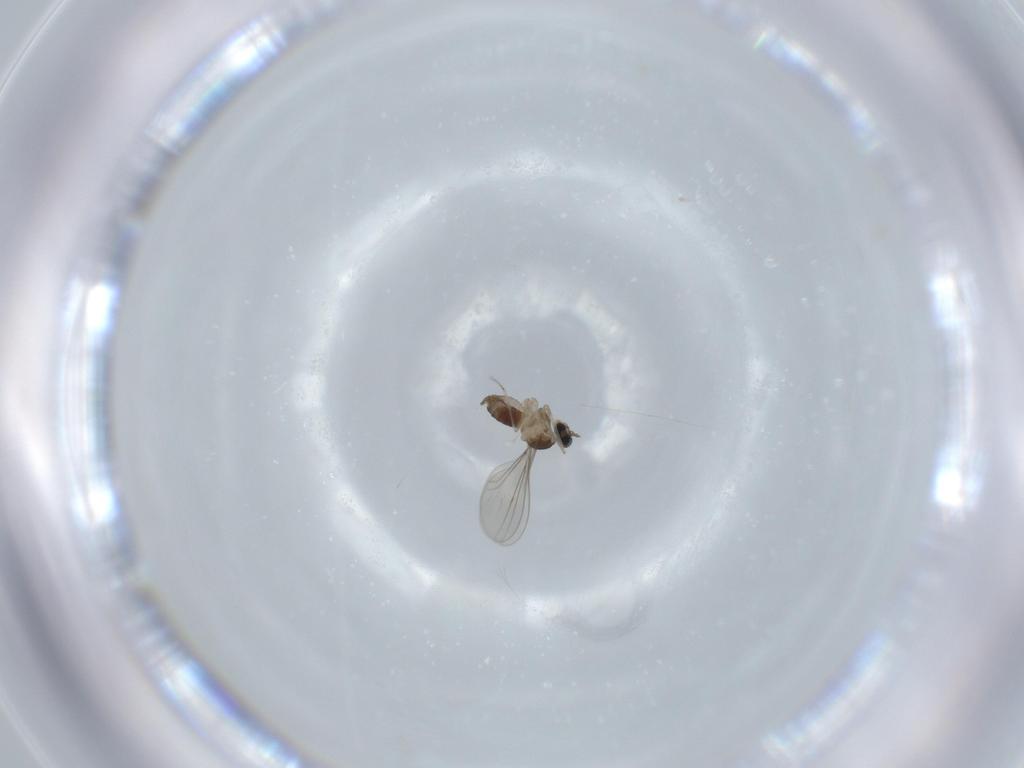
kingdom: Animalia
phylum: Arthropoda
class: Insecta
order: Diptera
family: Cecidomyiidae
